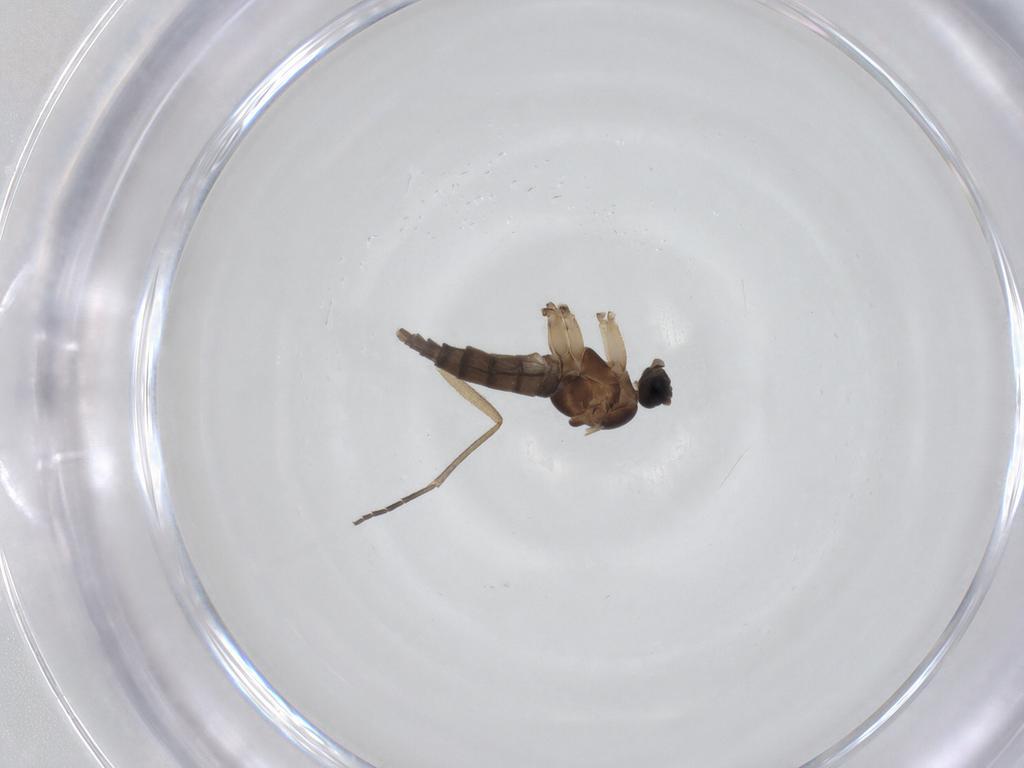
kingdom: Animalia
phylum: Arthropoda
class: Insecta
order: Diptera
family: Sciaridae
